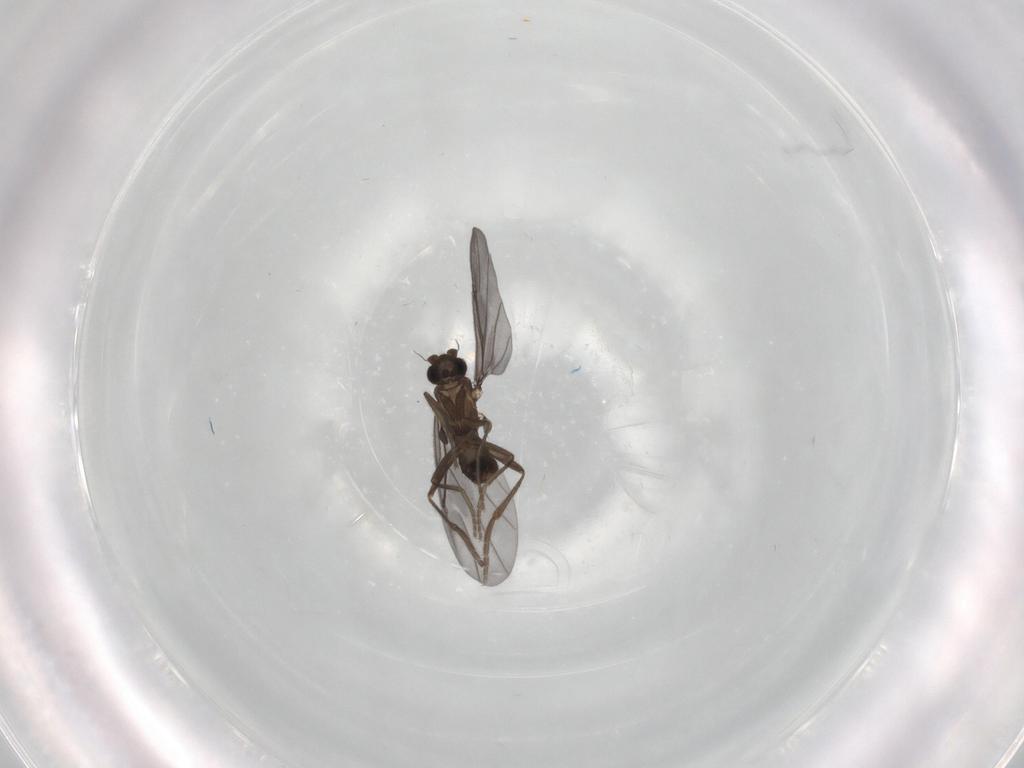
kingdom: Animalia
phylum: Arthropoda
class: Insecta
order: Diptera
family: Phoridae
